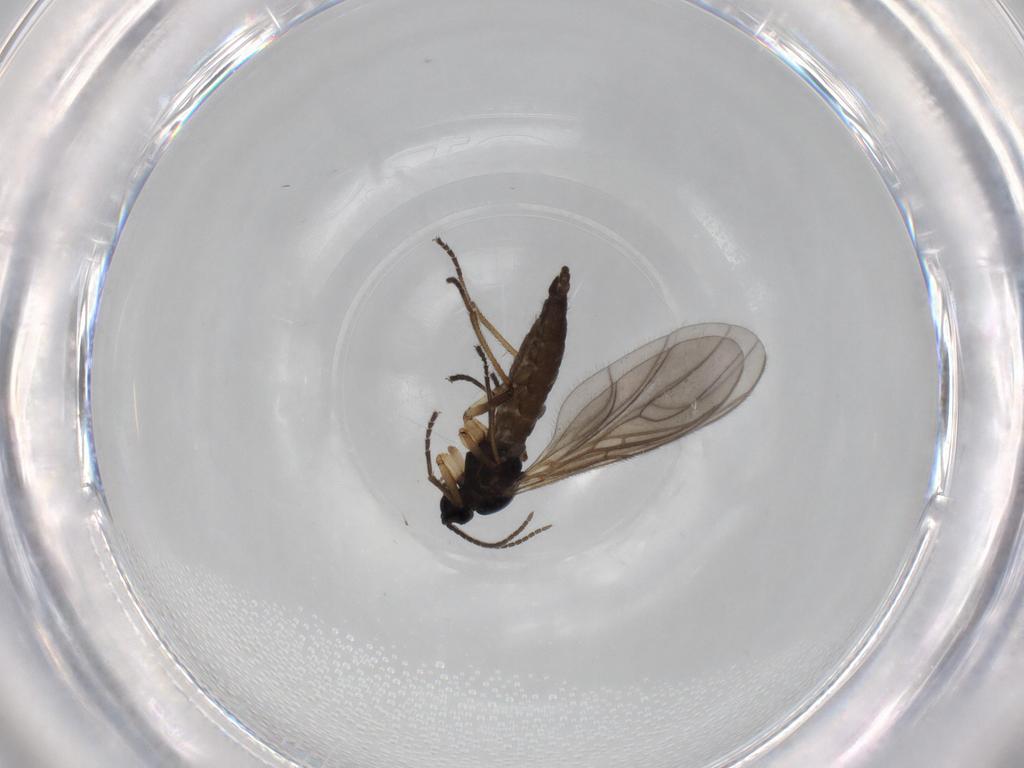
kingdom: Animalia
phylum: Arthropoda
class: Insecta
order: Diptera
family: Sciaridae
